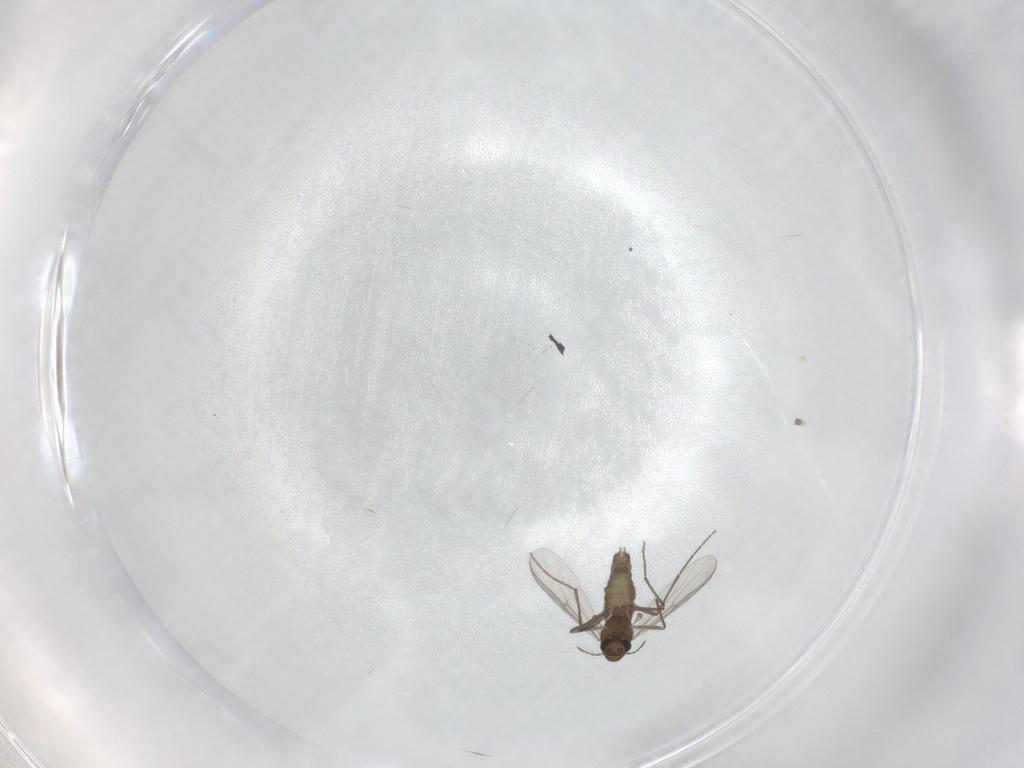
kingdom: Animalia
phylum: Arthropoda
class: Insecta
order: Diptera
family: Chironomidae
